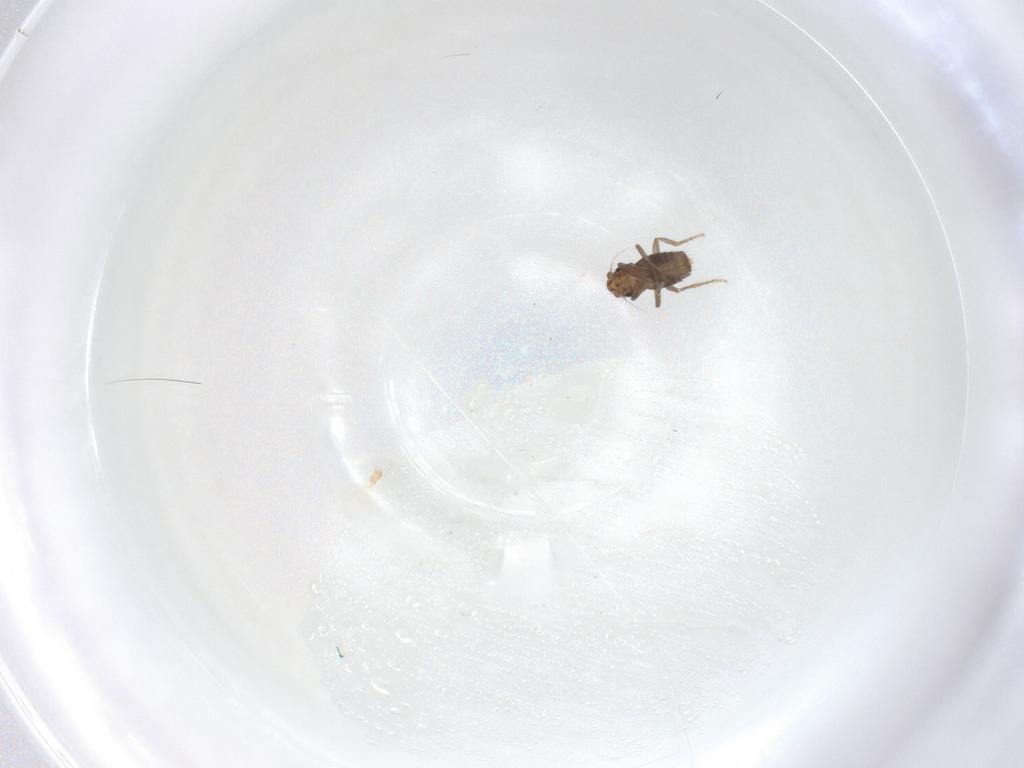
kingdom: Animalia
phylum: Arthropoda
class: Insecta
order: Diptera
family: Phoridae
